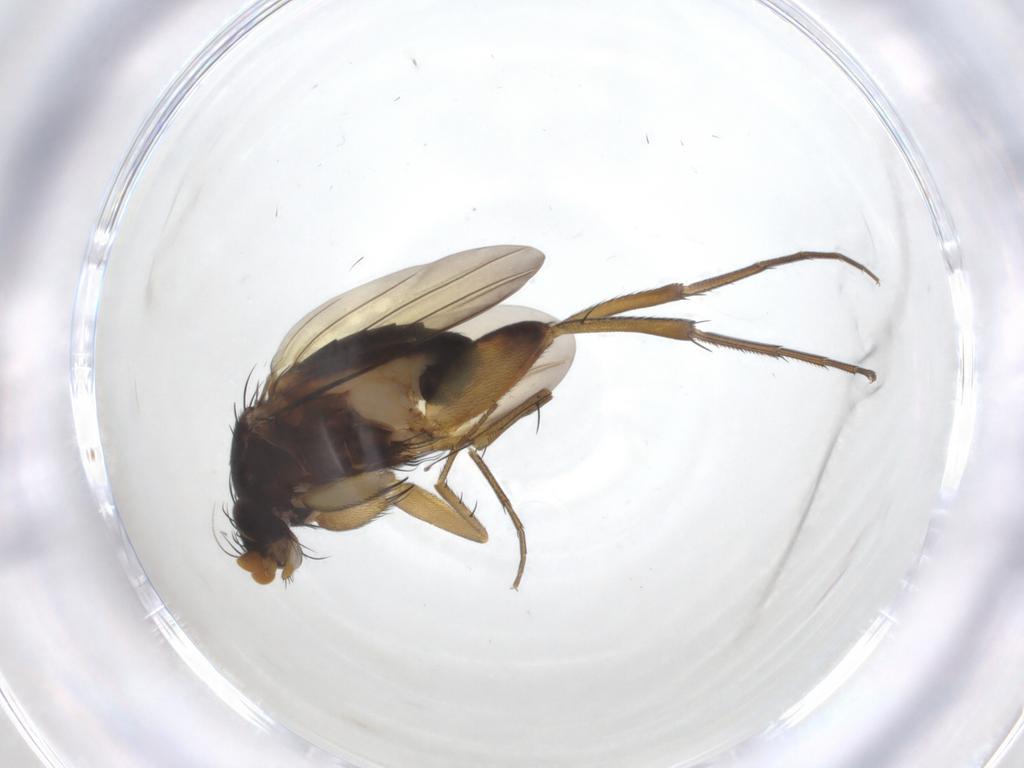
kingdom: Animalia
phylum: Arthropoda
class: Insecta
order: Diptera
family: Phoridae
